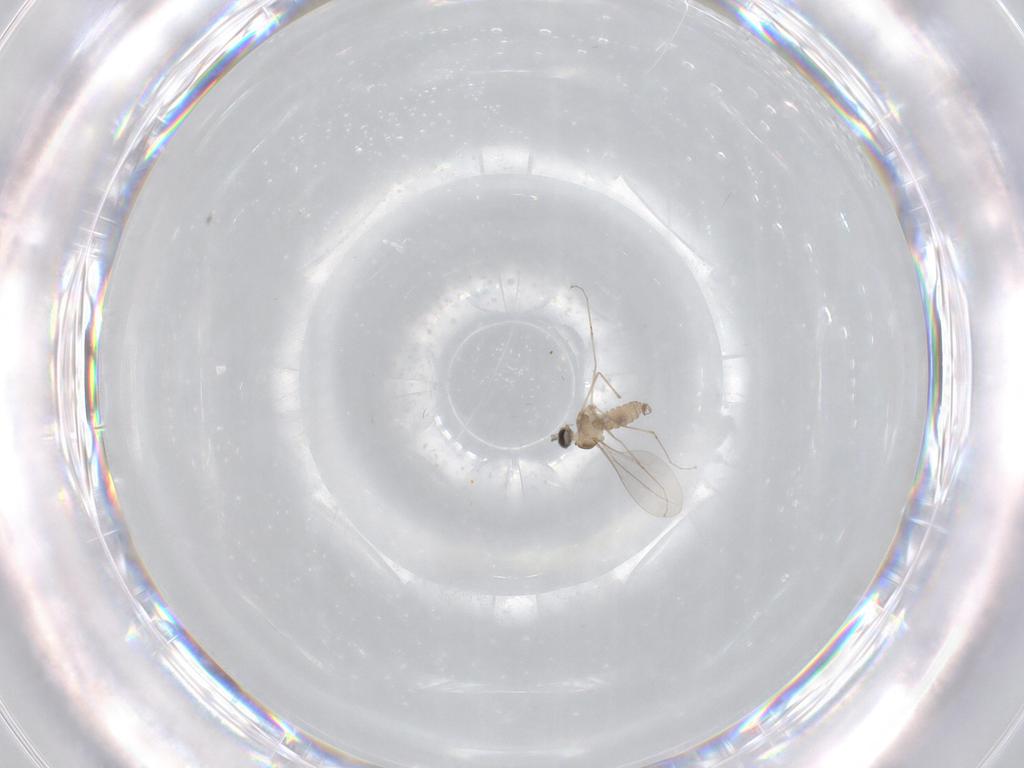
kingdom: Animalia
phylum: Arthropoda
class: Insecta
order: Diptera
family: Cecidomyiidae
